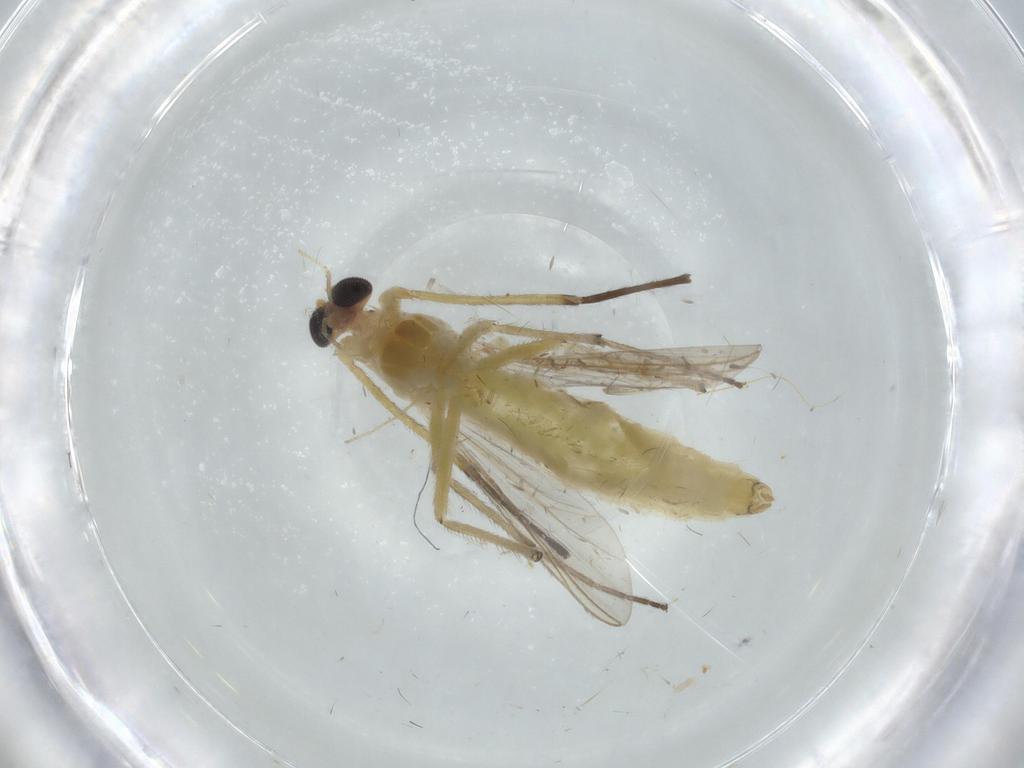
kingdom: Animalia
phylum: Arthropoda
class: Insecta
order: Diptera
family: Chironomidae
